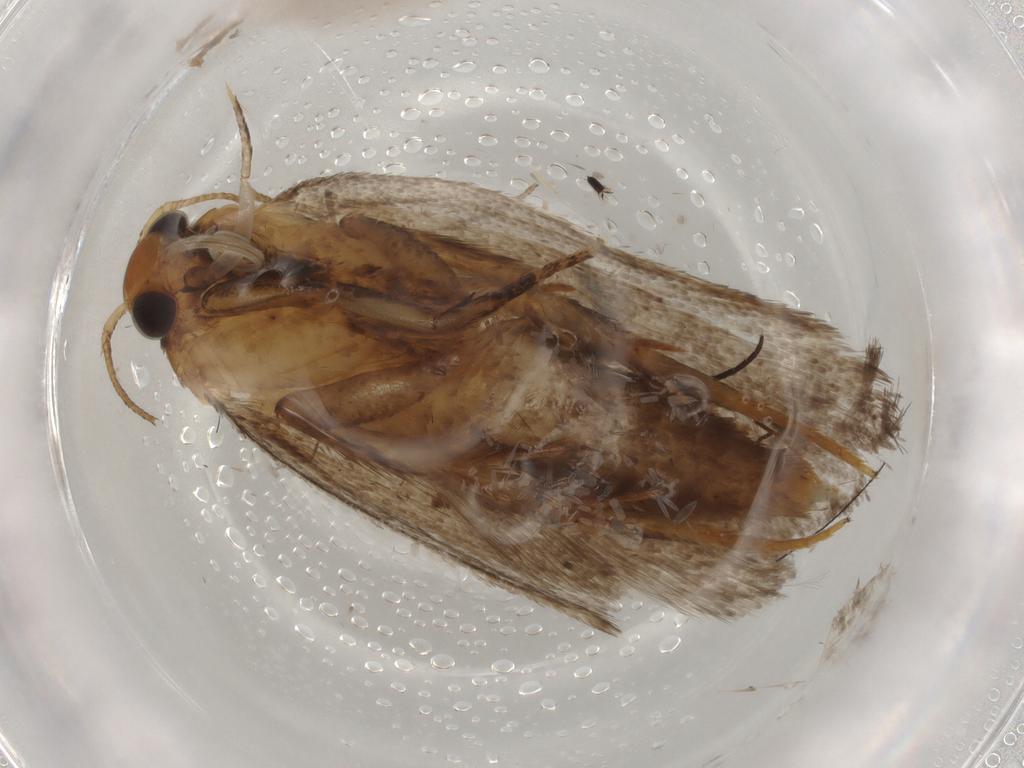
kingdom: Animalia
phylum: Arthropoda
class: Insecta
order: Lepidoptera
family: Oecophoridae
